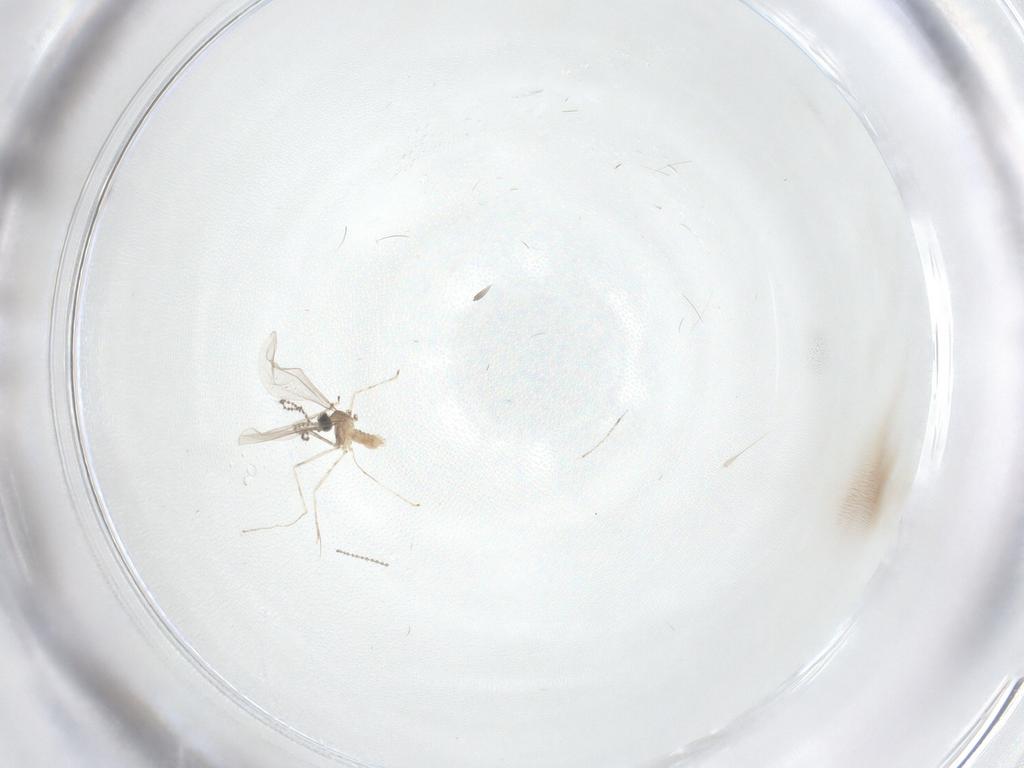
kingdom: Animalia
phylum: Arthropoda
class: Insecta
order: Diptera
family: Cecidomyiidae
